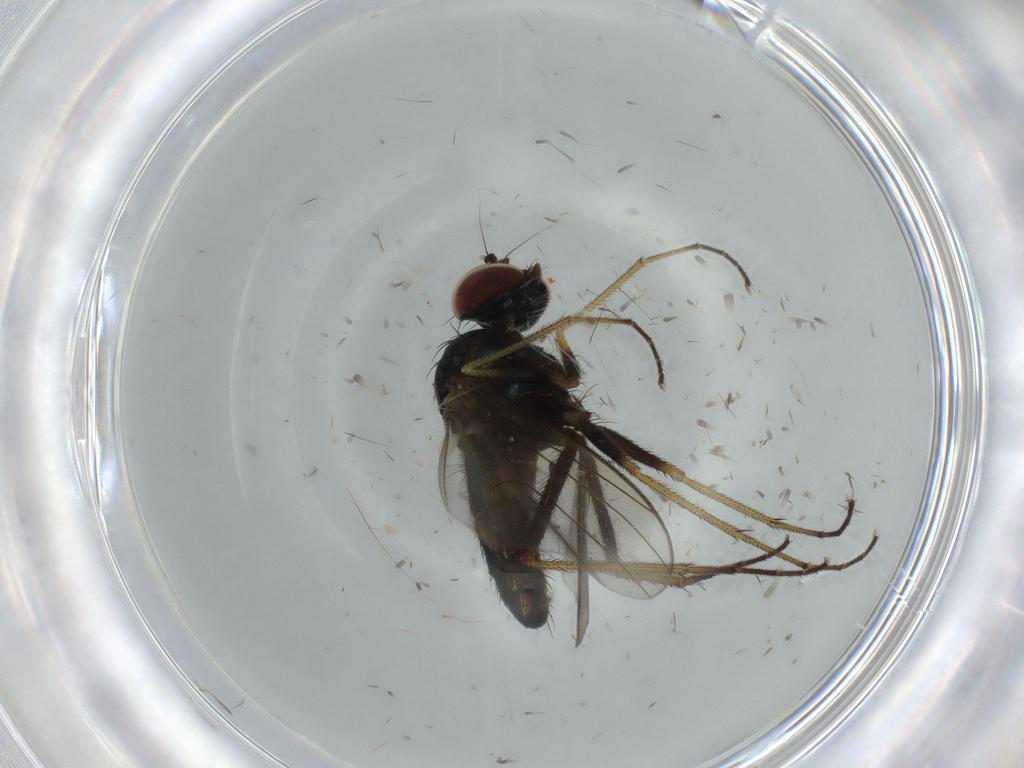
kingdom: Animalia
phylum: Arthropoda
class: Insecta
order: Diptera
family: Dolichopodidae
